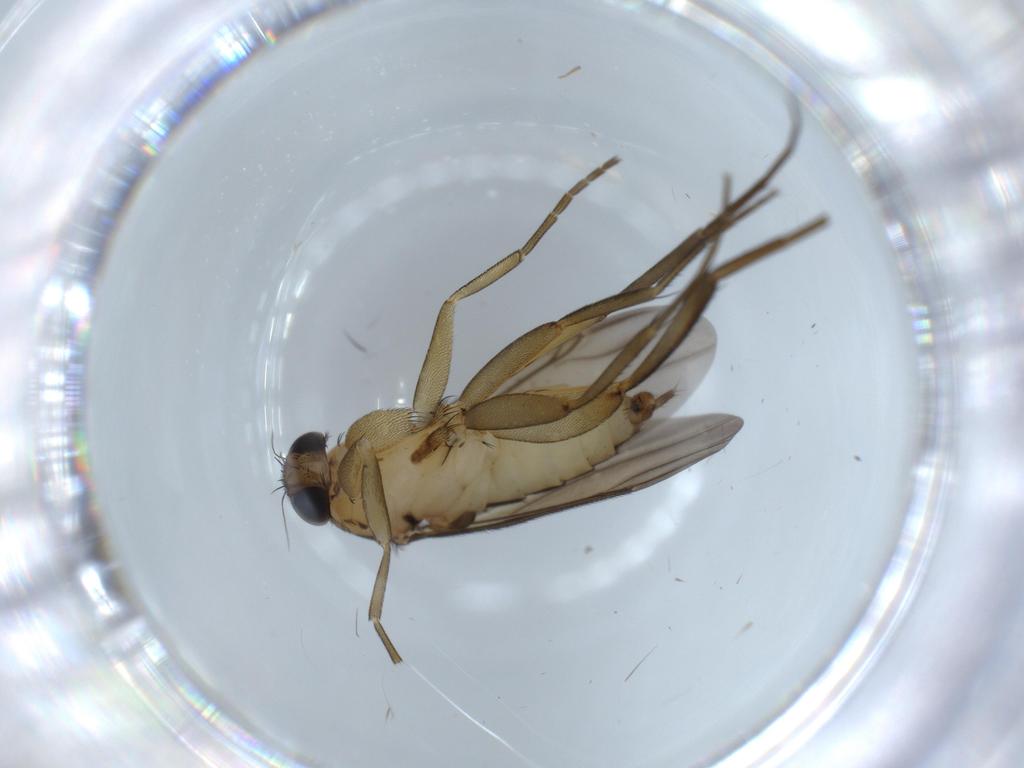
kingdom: Animalia
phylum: Arthropoda
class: Insecta
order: Diptera
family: Phoridae
